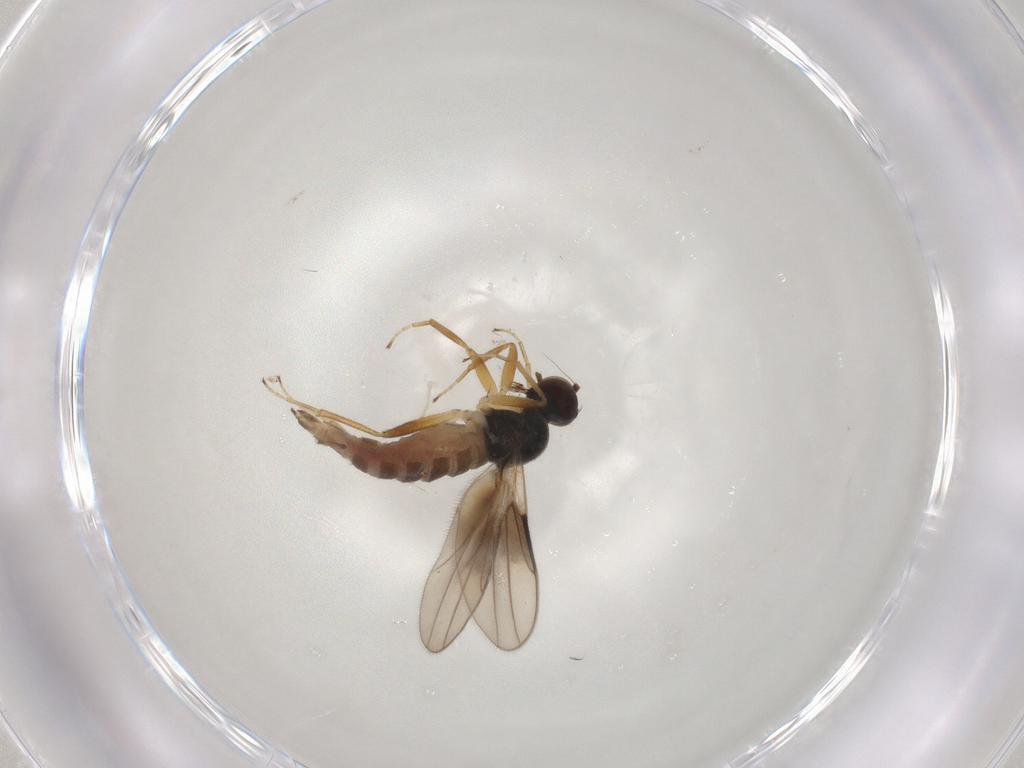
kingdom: Animalia
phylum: Arthropoda
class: Insecta
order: Diptera
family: Hybotidae
